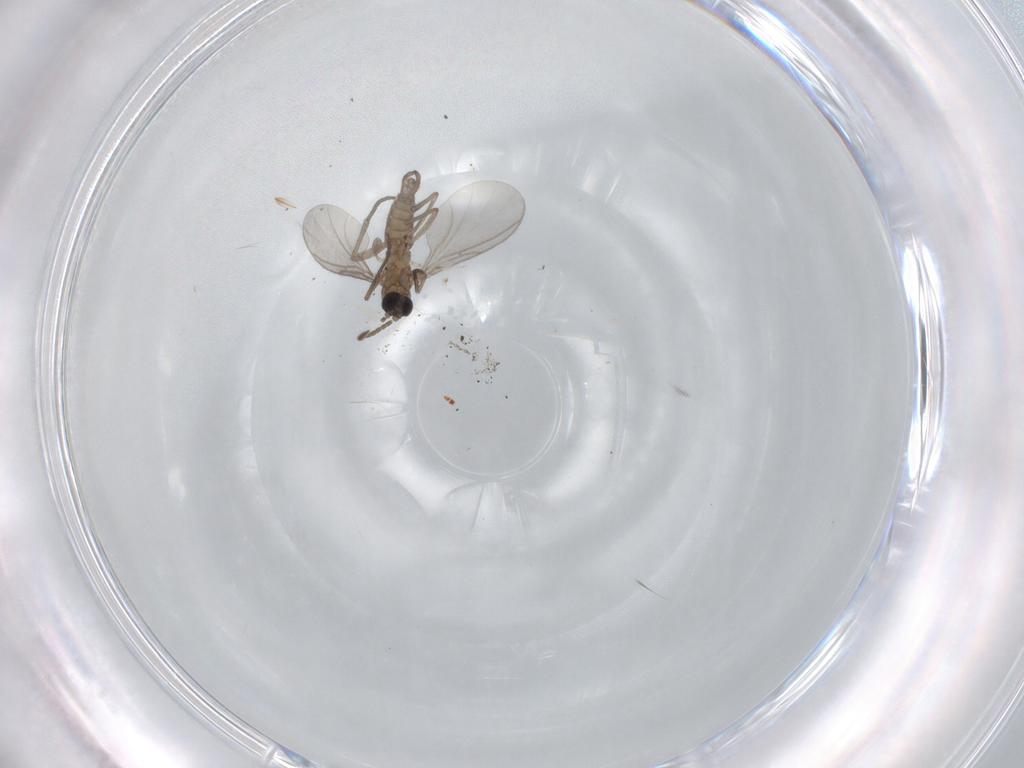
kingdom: Animalia
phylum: Arthropoda
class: Insecta
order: Diptera
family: Sciaridae
